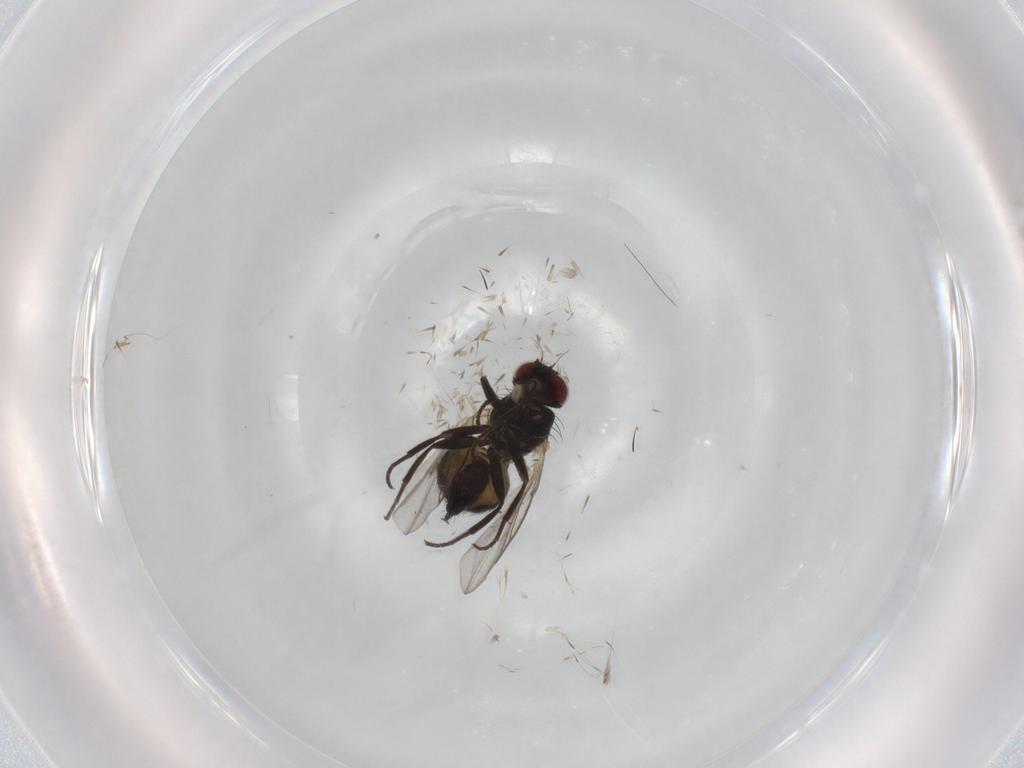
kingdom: Animalia
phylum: Arthropoda
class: Insecta
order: Diptera
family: Agromyzidae
